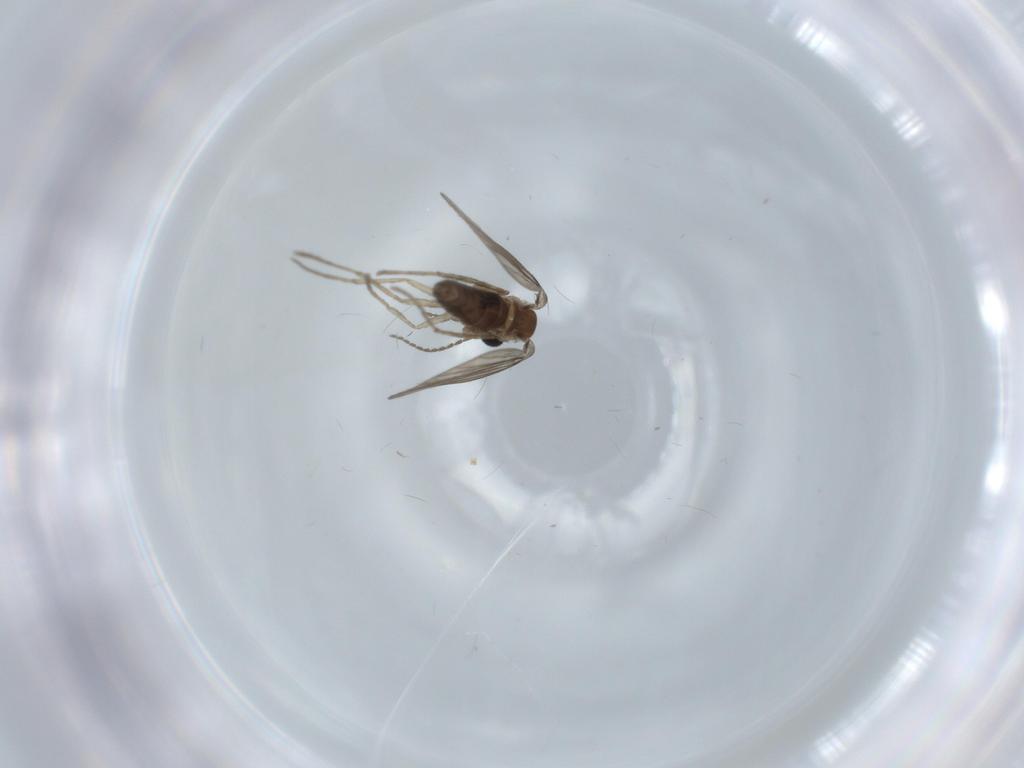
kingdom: Animalia
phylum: Arthropoda
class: Insecta
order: Diptera
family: Psychodidae
